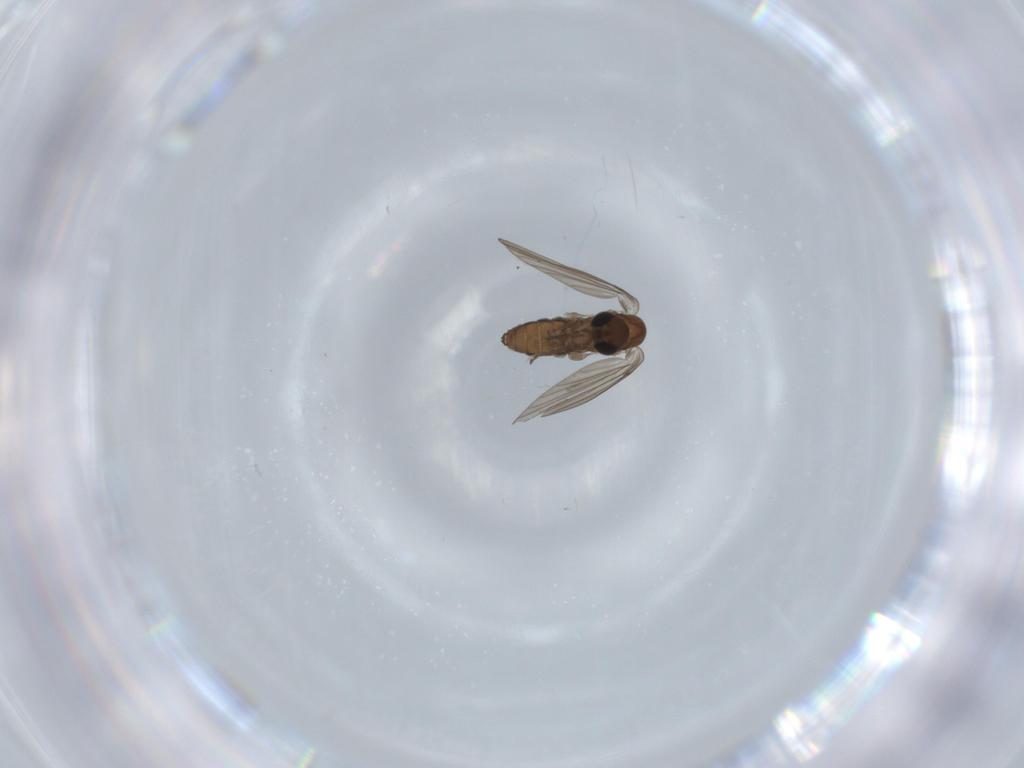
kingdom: Animalia
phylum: Arthropoda
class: Insecta
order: Diptera
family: Psychodidae
